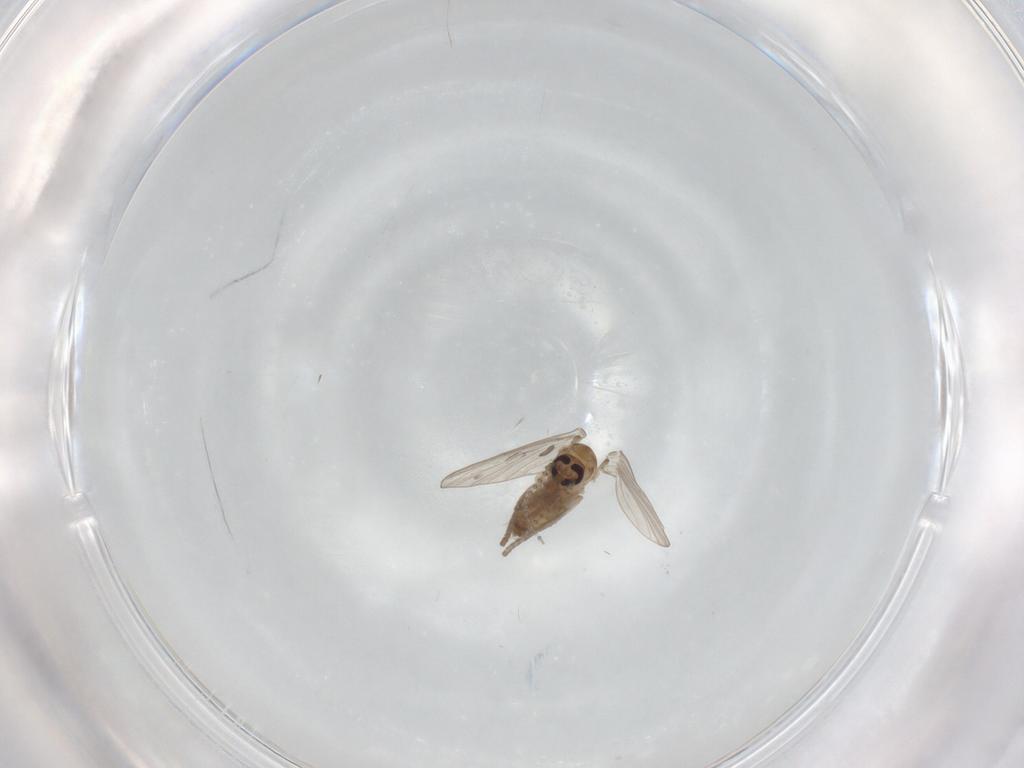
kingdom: Animalia
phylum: Arthropoda
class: Insecta
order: Diptera
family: Psychodidae
